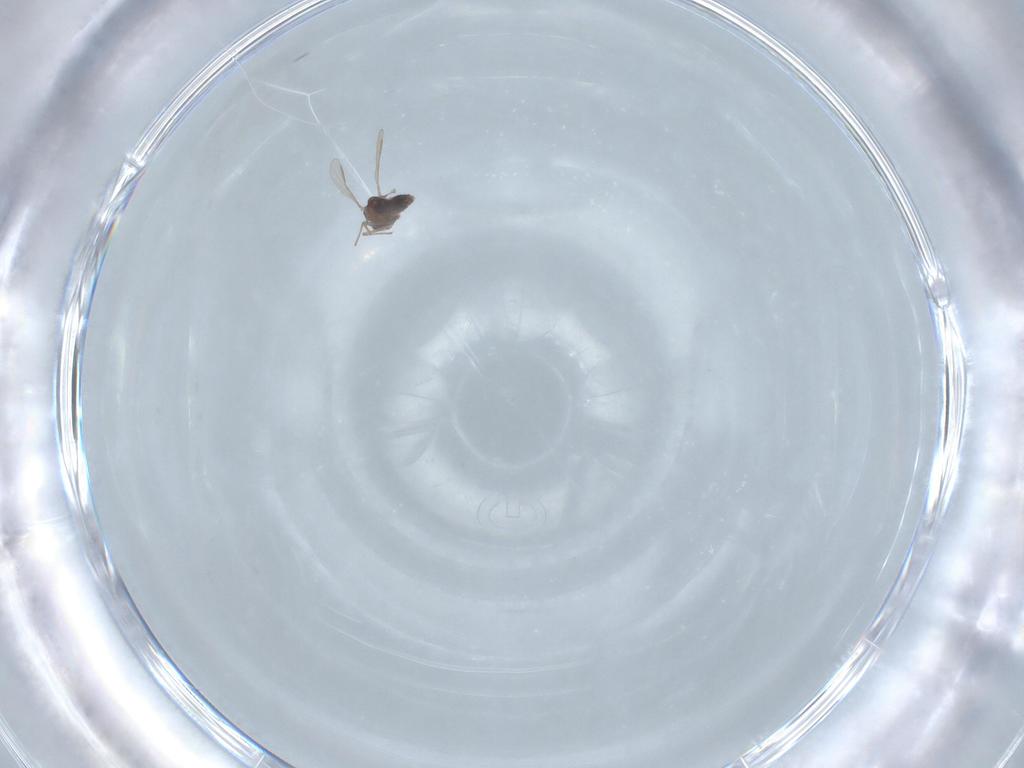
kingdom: Animalia
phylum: Arthropoda
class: Insecta
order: Diptera
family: Chironomidae
